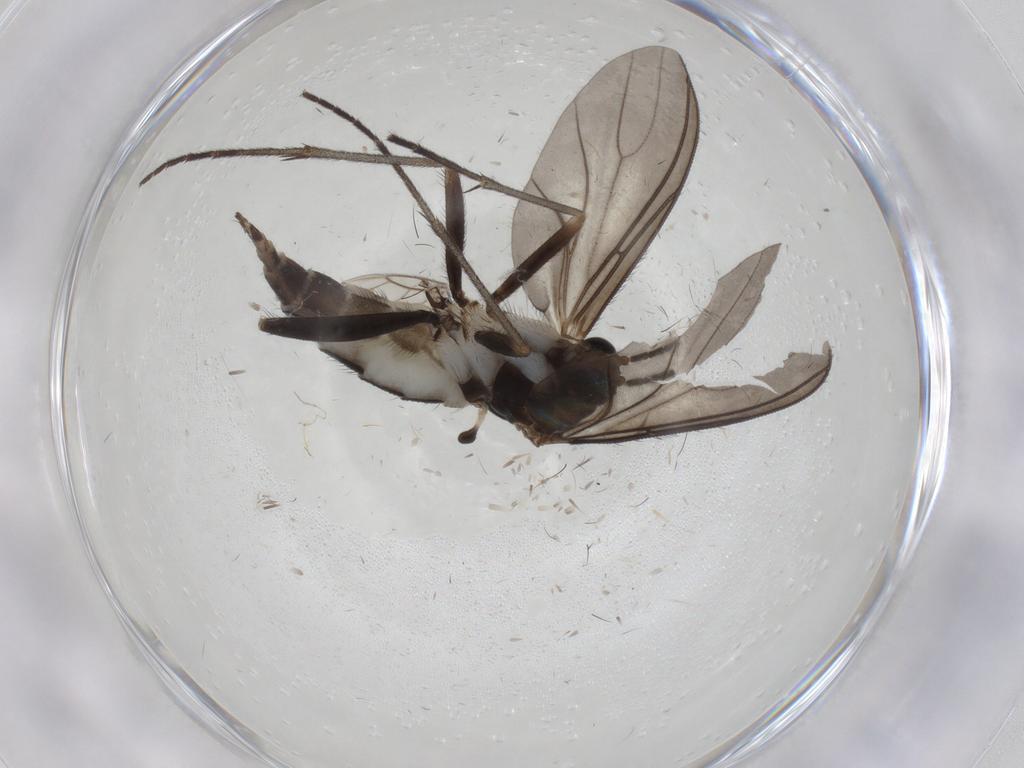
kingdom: Animalia
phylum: Arthropoda
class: Insecta
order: Diptera
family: Sciaridae
